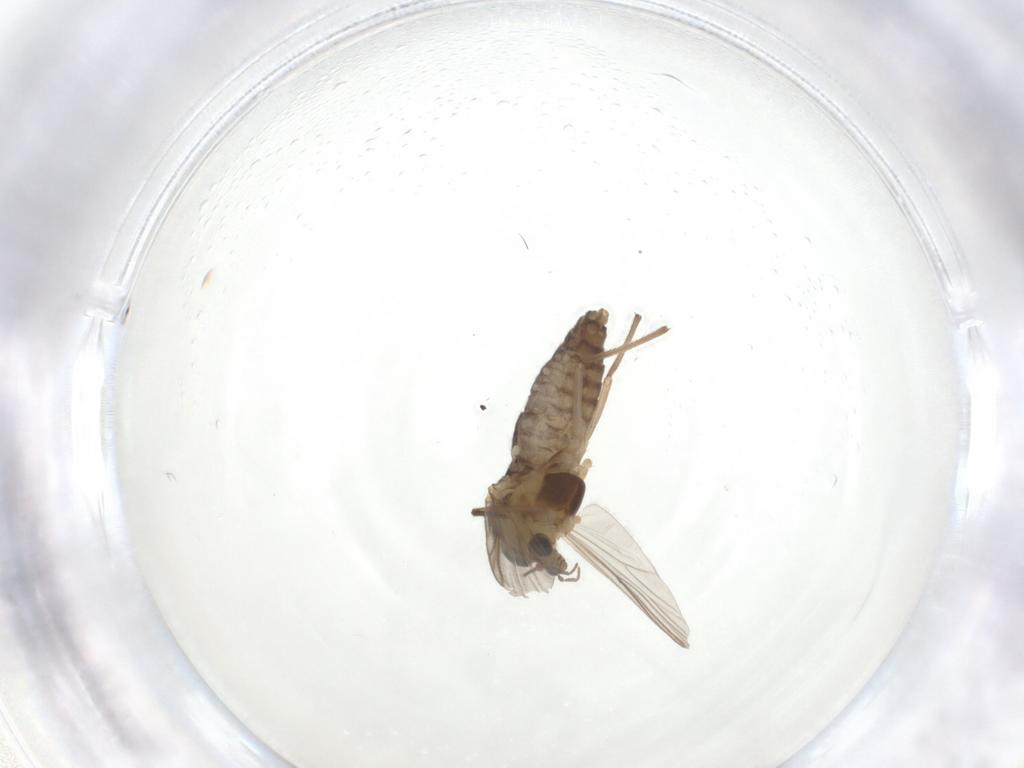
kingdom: Animalia
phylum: Arthropoda
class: Insecta
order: Diptera
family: Chironomidae
